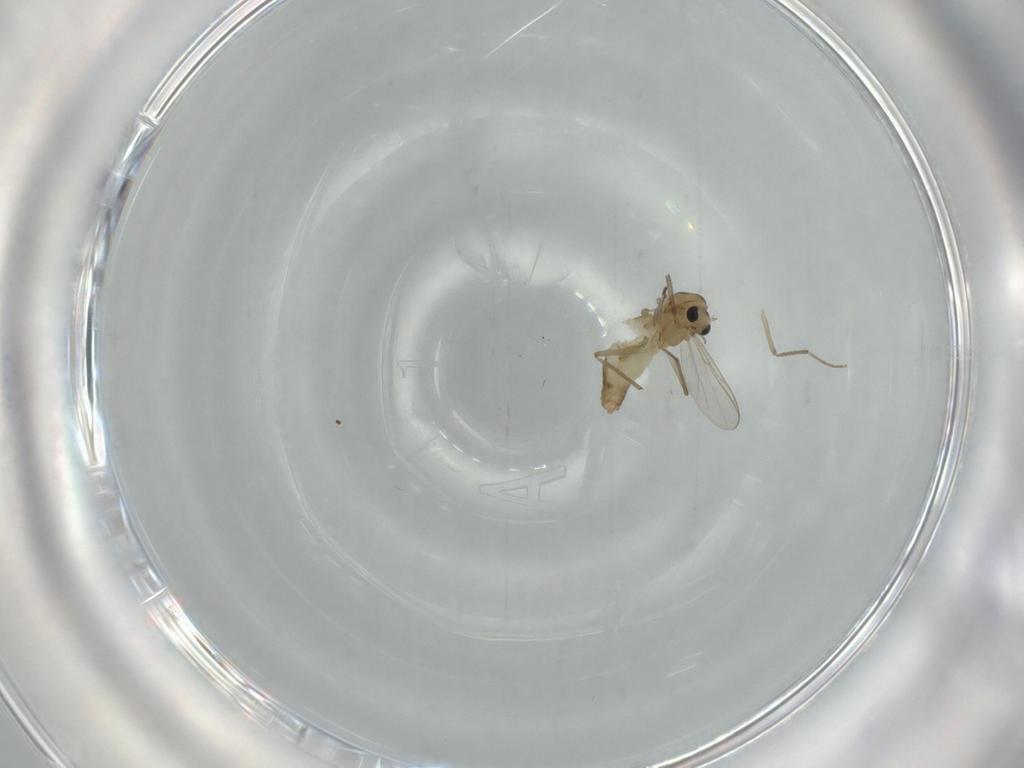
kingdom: Animalia
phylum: Arthropoda
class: Insecta
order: Diptera
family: Chironomidae
